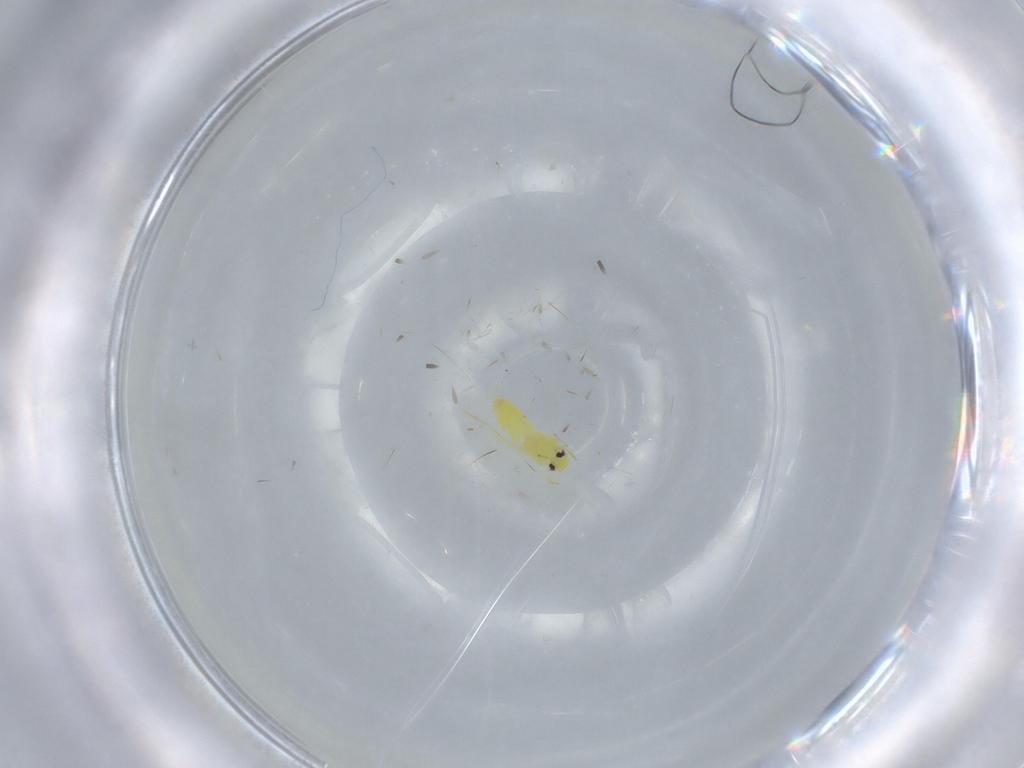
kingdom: Animalia
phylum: Arthropoda
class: Insecta
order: Hemiptera
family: Aleyrodidae
